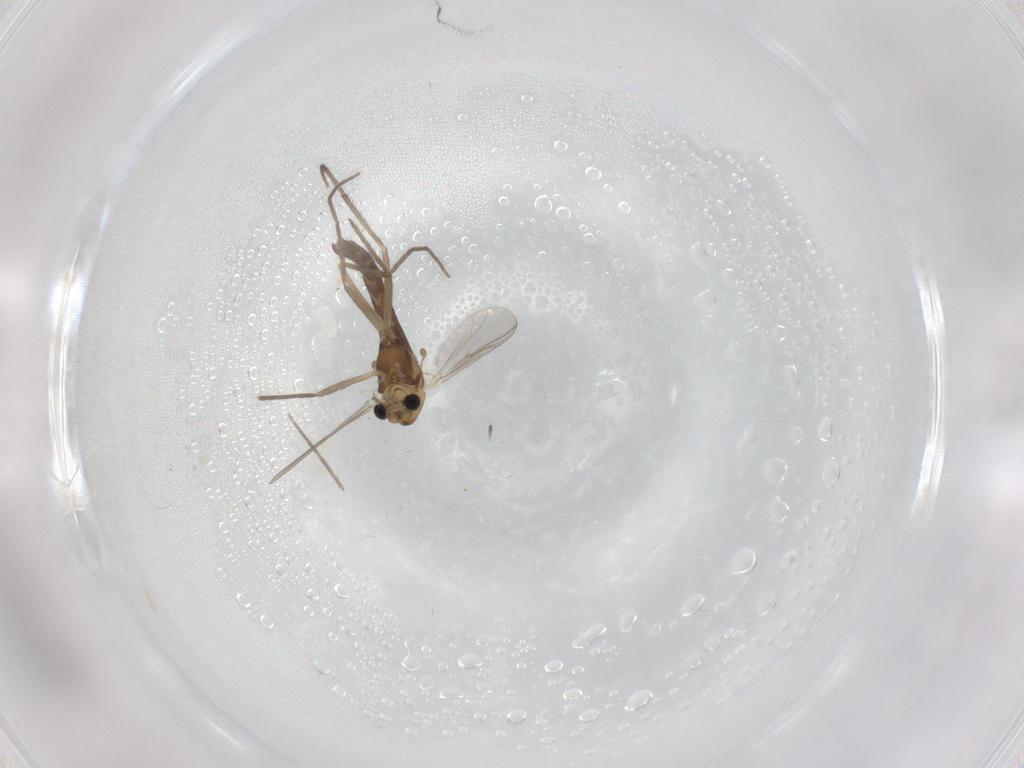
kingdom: Animalia
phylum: Arthropoda
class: Insecta
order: Diptera
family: Chironomidae
